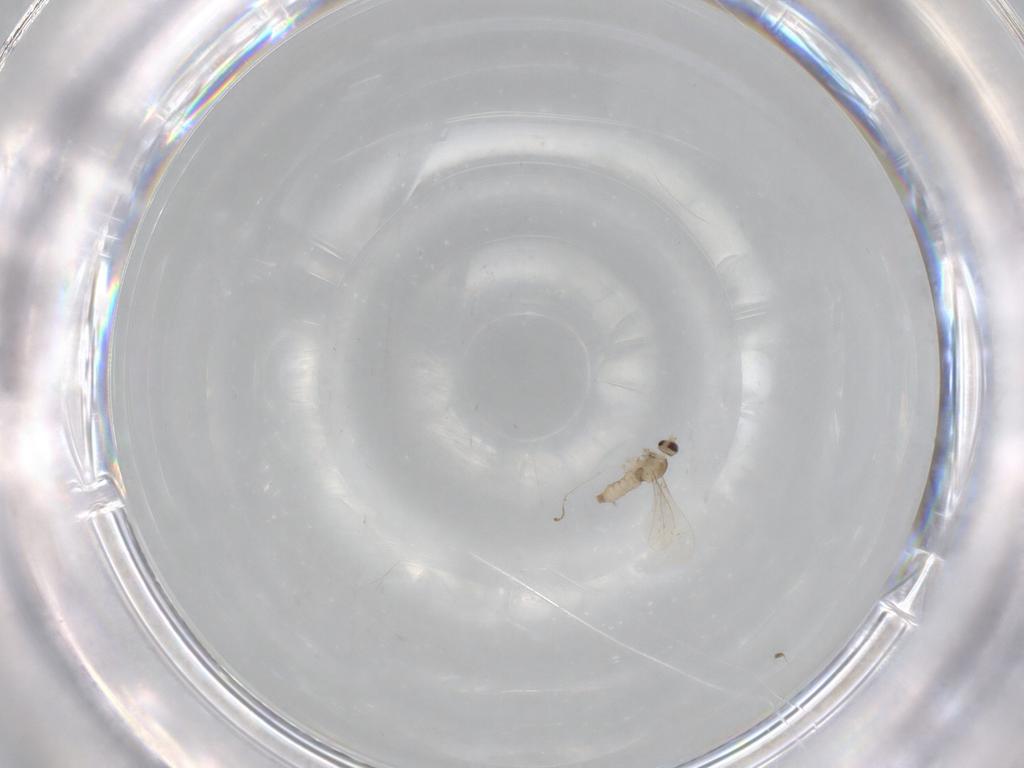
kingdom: Animalia
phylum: Arthropoda
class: Insecta
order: Diptera
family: Cecidomyiidae
